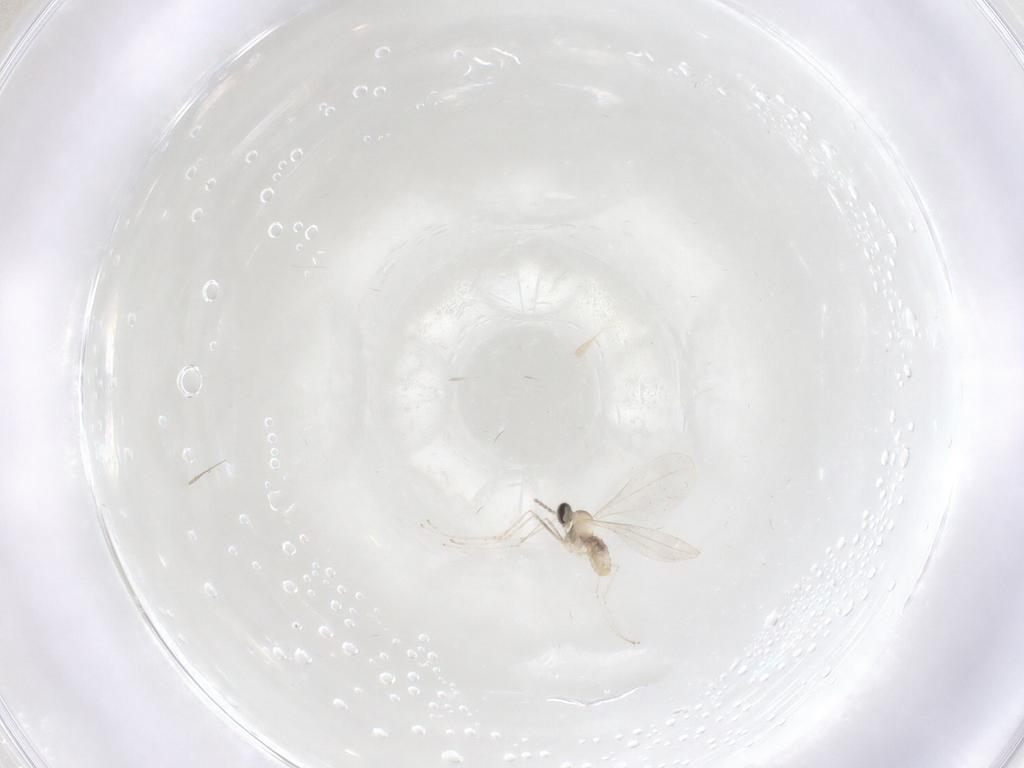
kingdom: Animalia
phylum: Arthropoda
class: Insecta
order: Diptera
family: Cecidomyiidae
